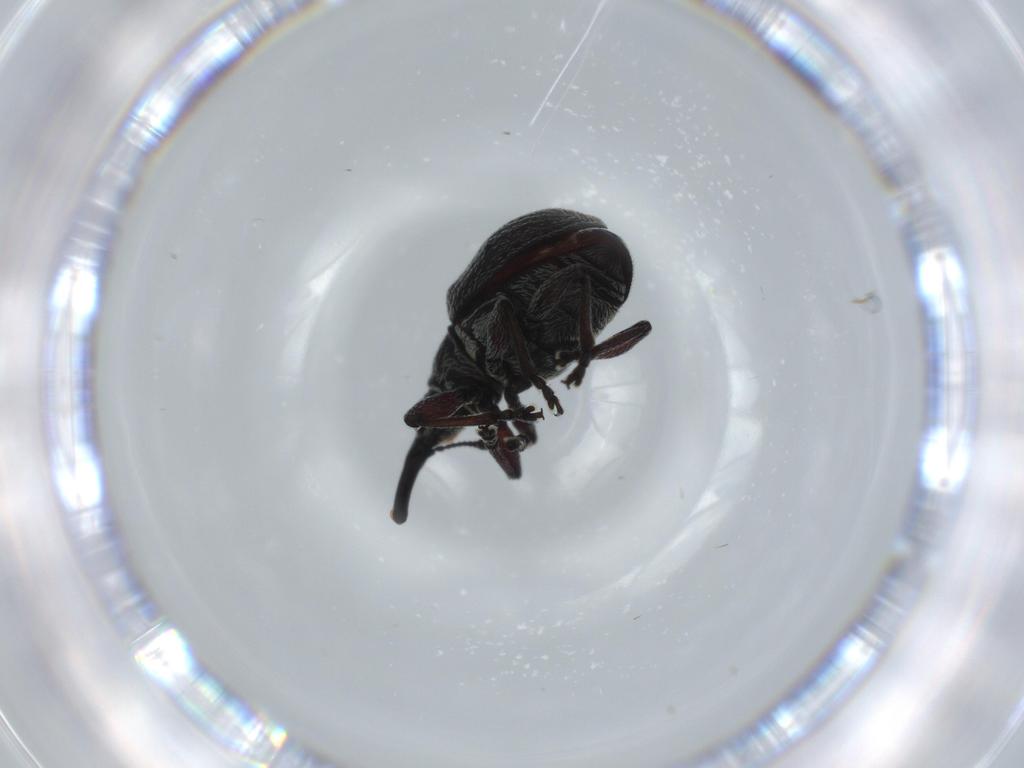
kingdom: Animalia
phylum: Arthropoda
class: Insecta
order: Coleoptera
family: Brentidae
